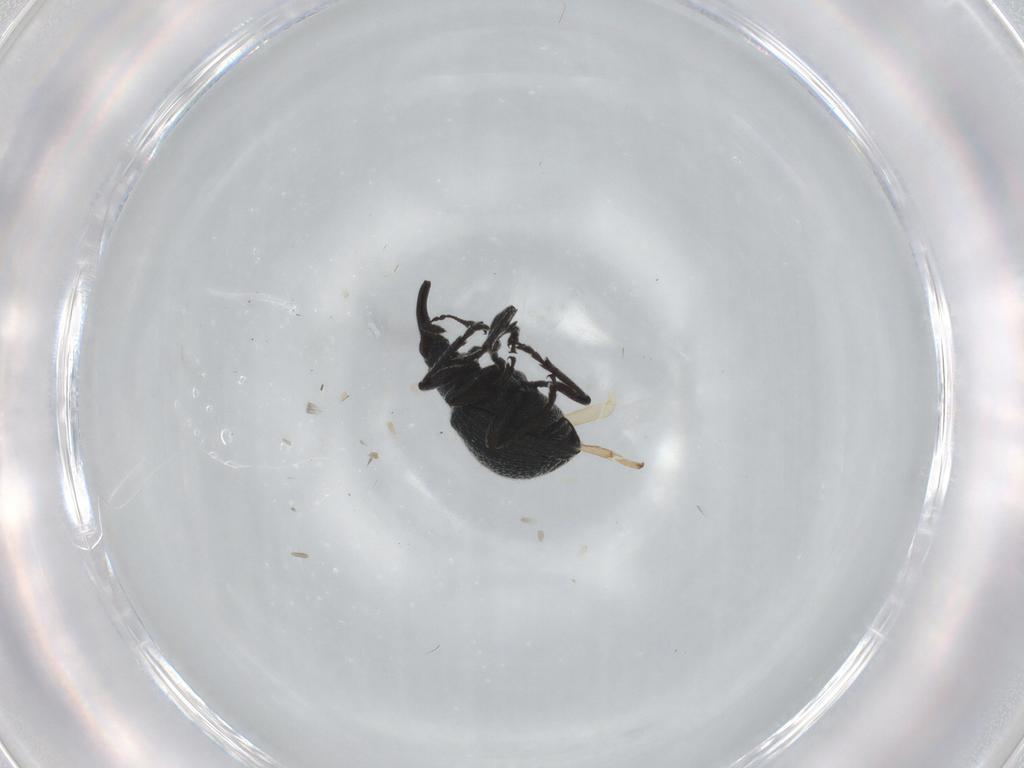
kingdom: Animalia
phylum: Arthropoda
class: Insecta
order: Coleoptera
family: Brentidae
